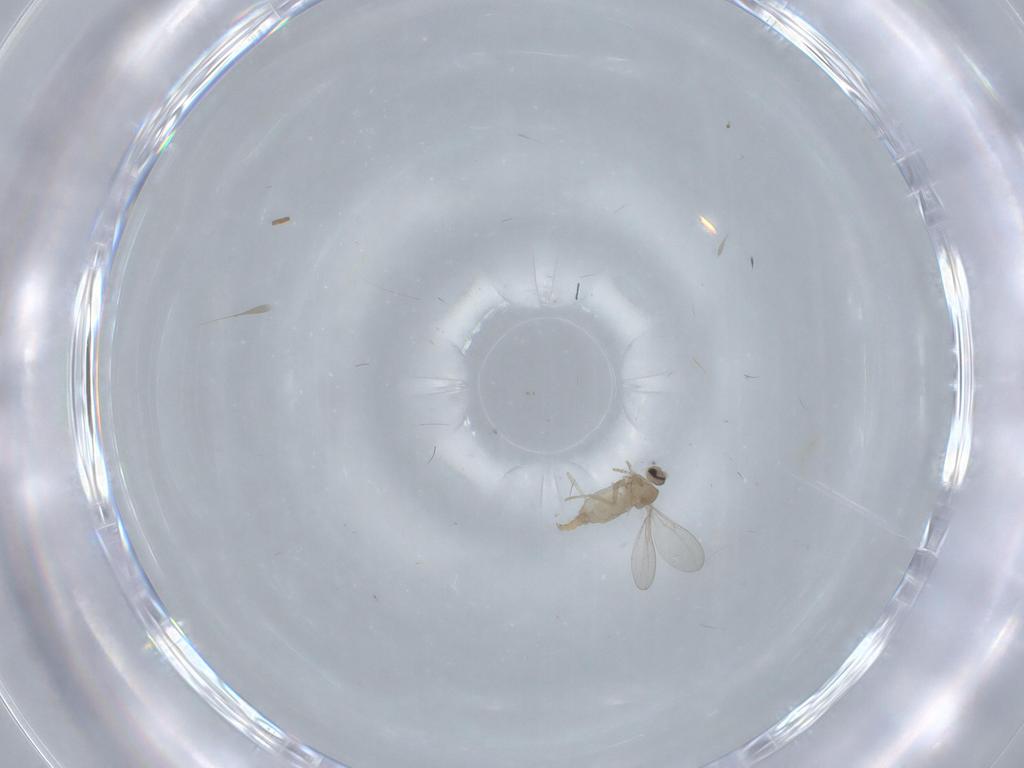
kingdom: Animalia
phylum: Arthropoda
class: Insecta
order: Diptera
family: Cecidomyiidae
